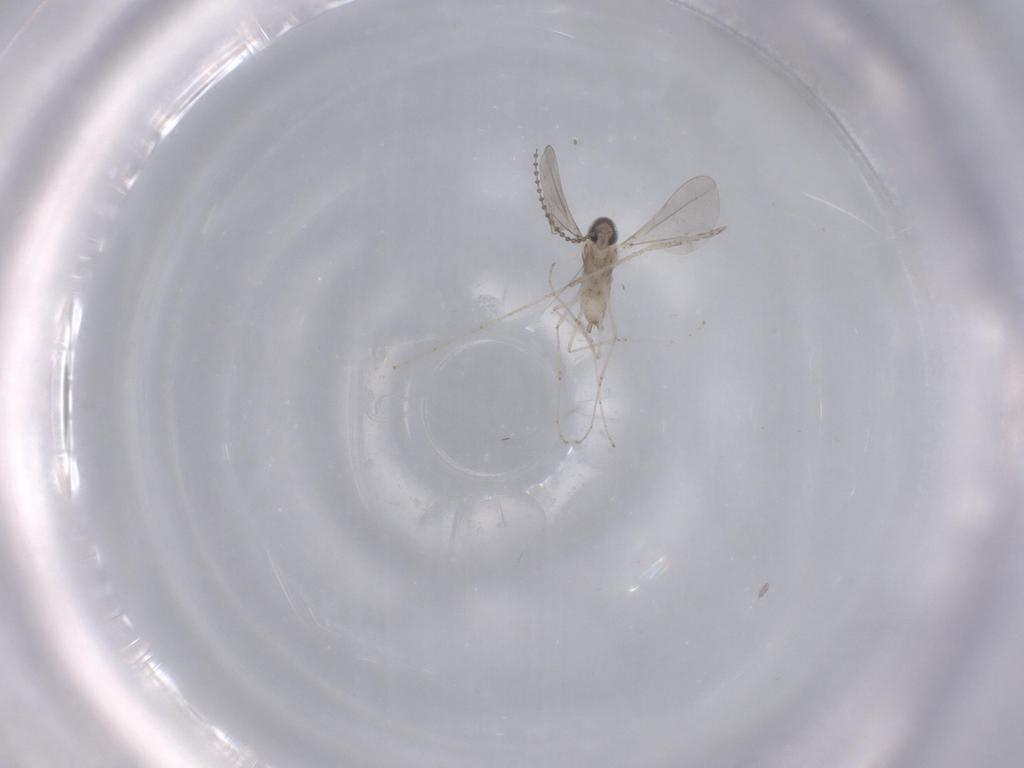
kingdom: Animalia
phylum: Arthropoda
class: Insecta
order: Diptera
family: Cecidomyiidae
